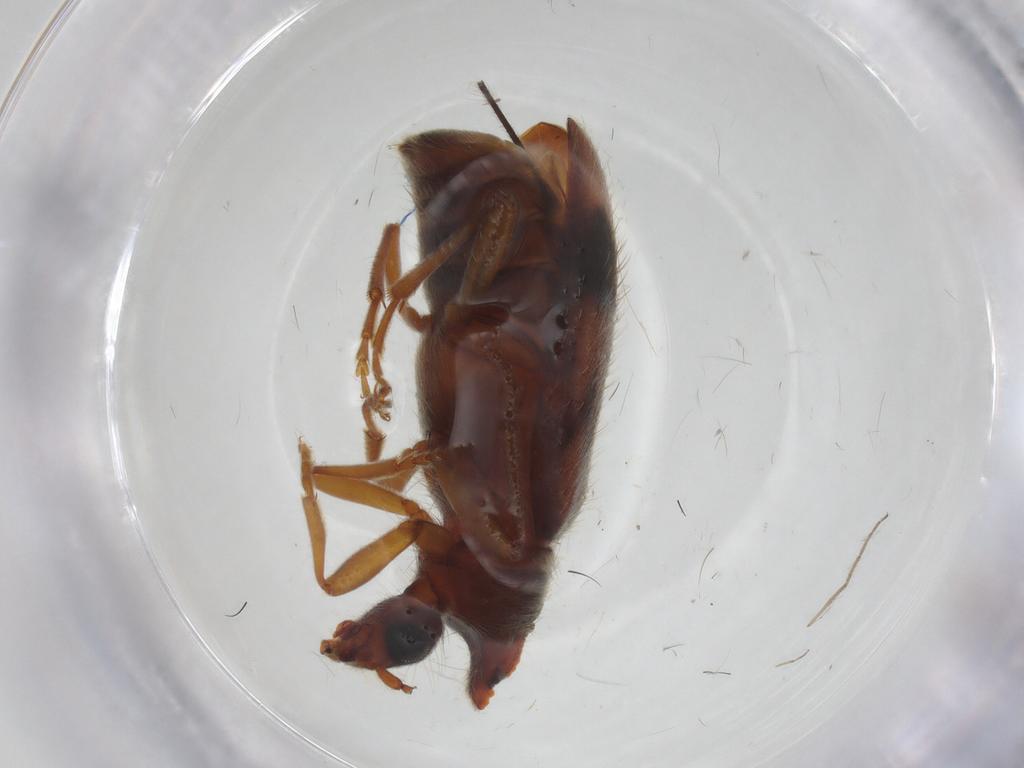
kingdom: Animalia
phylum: Arthropoda
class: Insecta
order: Coleoptera
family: Anthicidae
